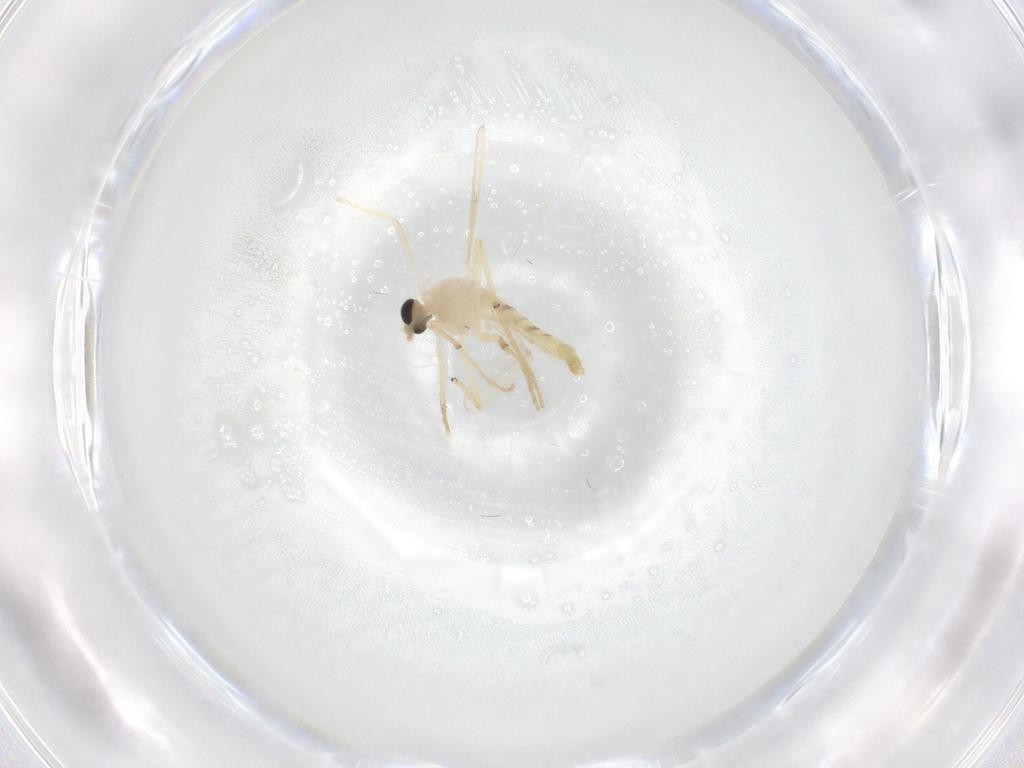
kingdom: Animalia
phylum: Arthropoda
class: Insecta
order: Diptera
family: Chironomidae
